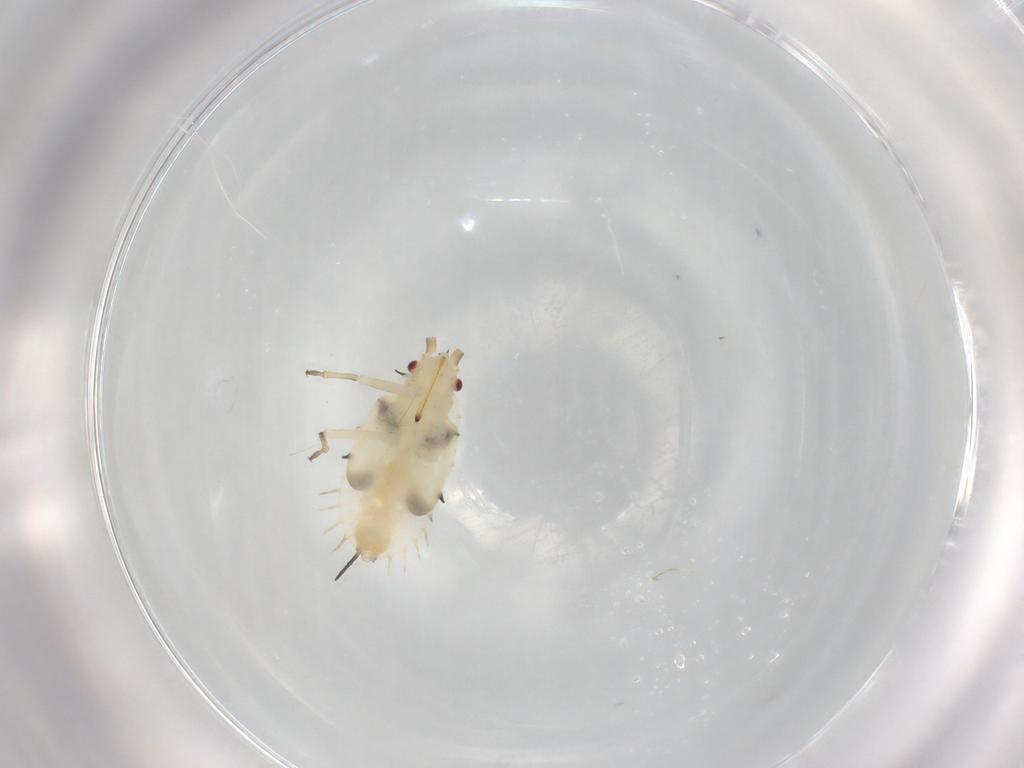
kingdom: Animalia
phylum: Arthropoda
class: Insecta
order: Hemiptera
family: Tingidae
